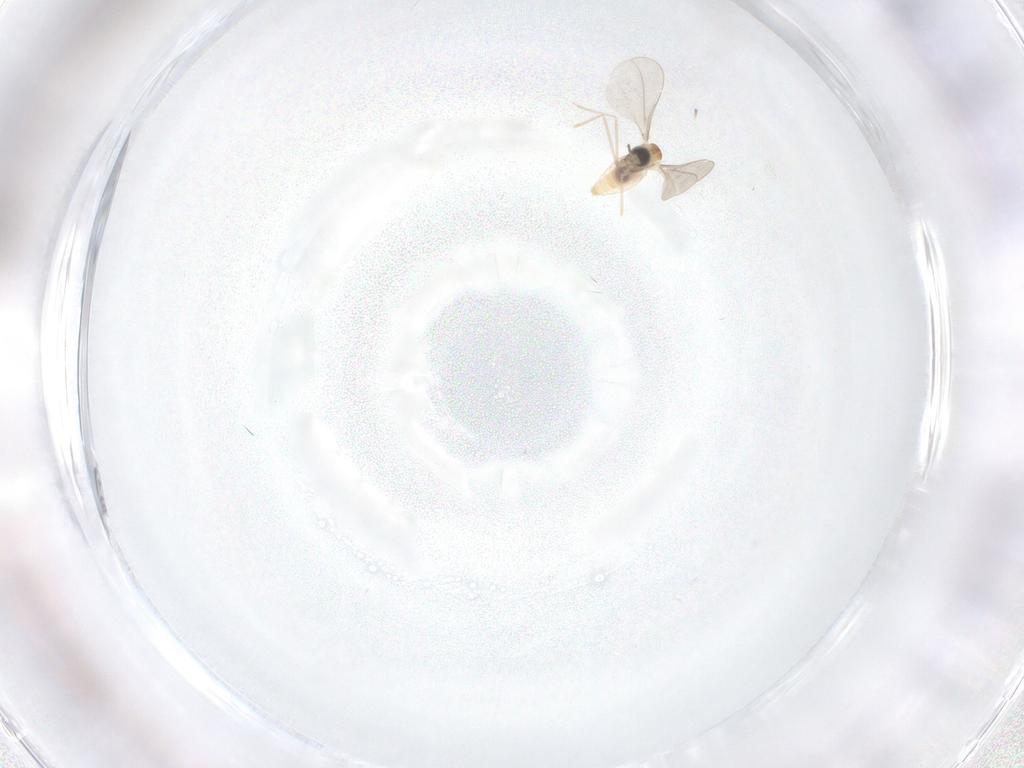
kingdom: Animalia
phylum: Arthropoda
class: Insecta
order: Diptera
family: Cecidomyiidae
